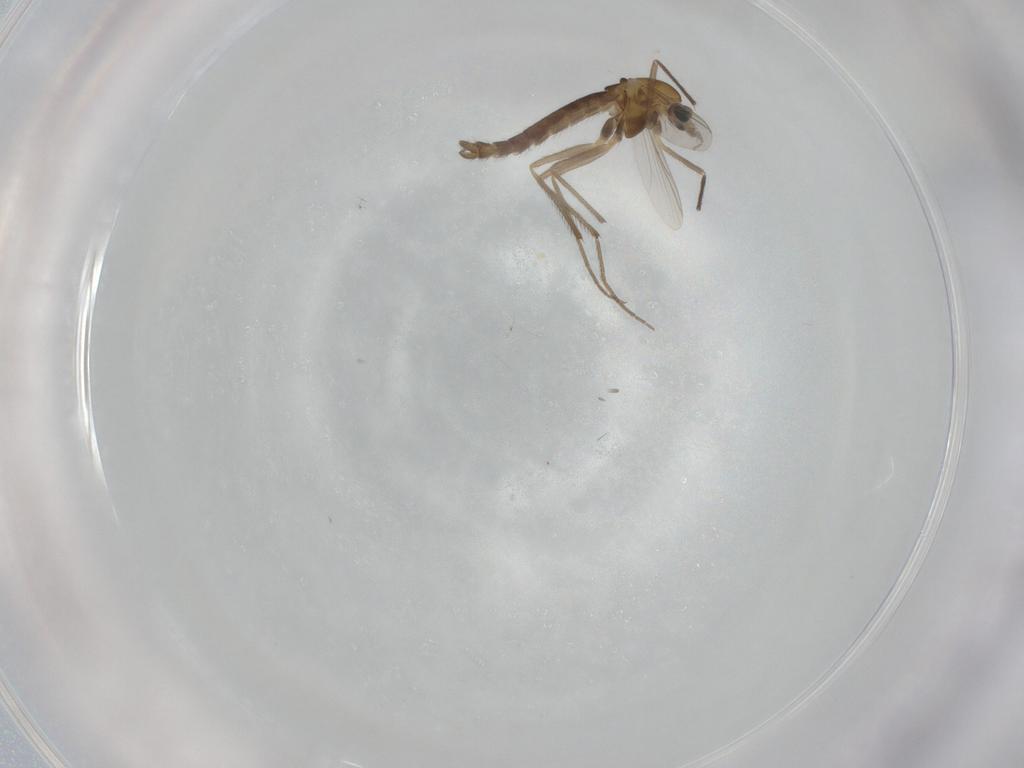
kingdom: Animalia
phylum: Arthropoda
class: Insecta
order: Diptera
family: Chironomidae
